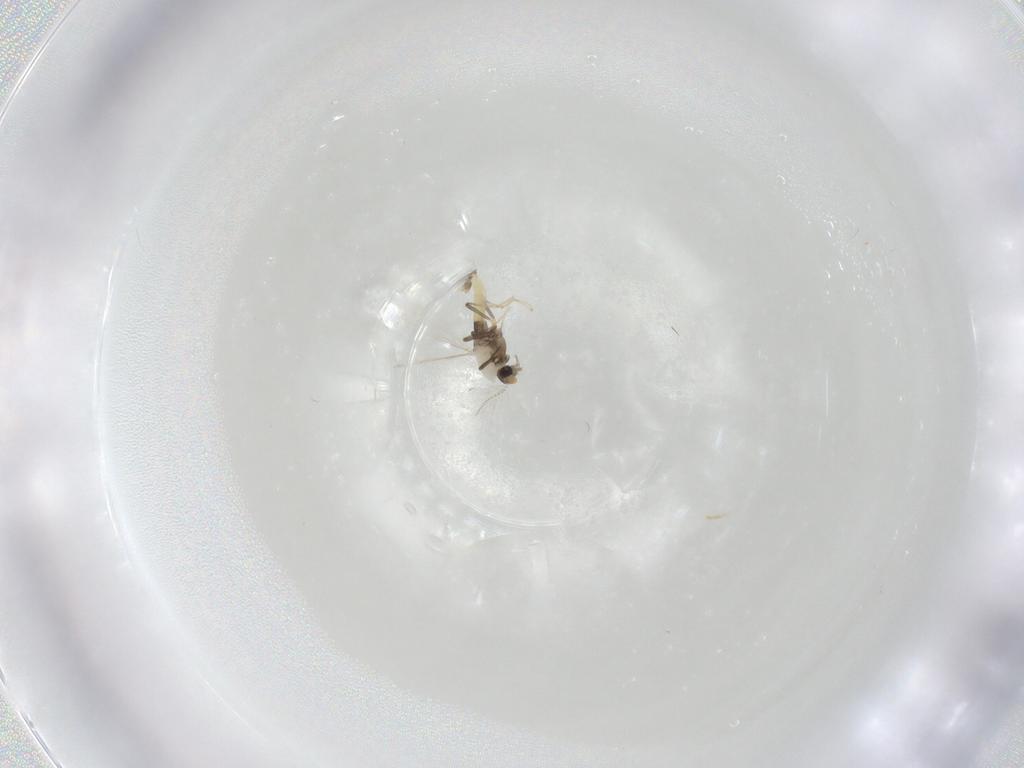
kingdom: Animalia
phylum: Arthropoda
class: Insecta
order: Diptera
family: Chironomidae
